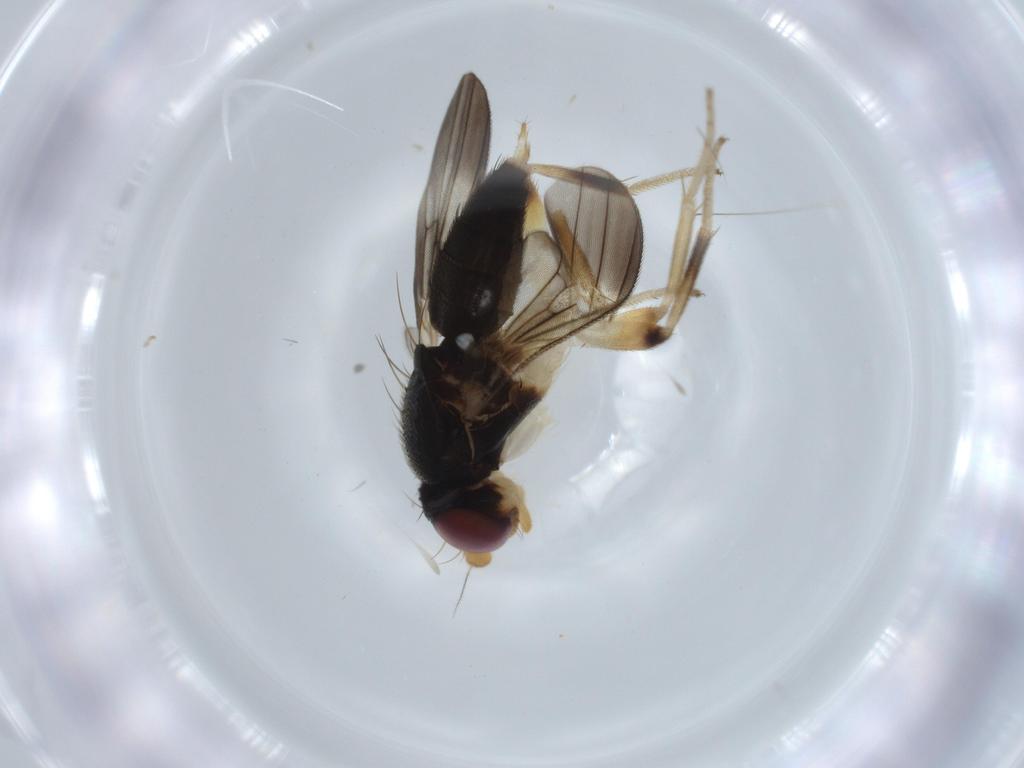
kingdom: Animalia
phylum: Arthropoda
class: Insecta
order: Diptera
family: Clusiidae
